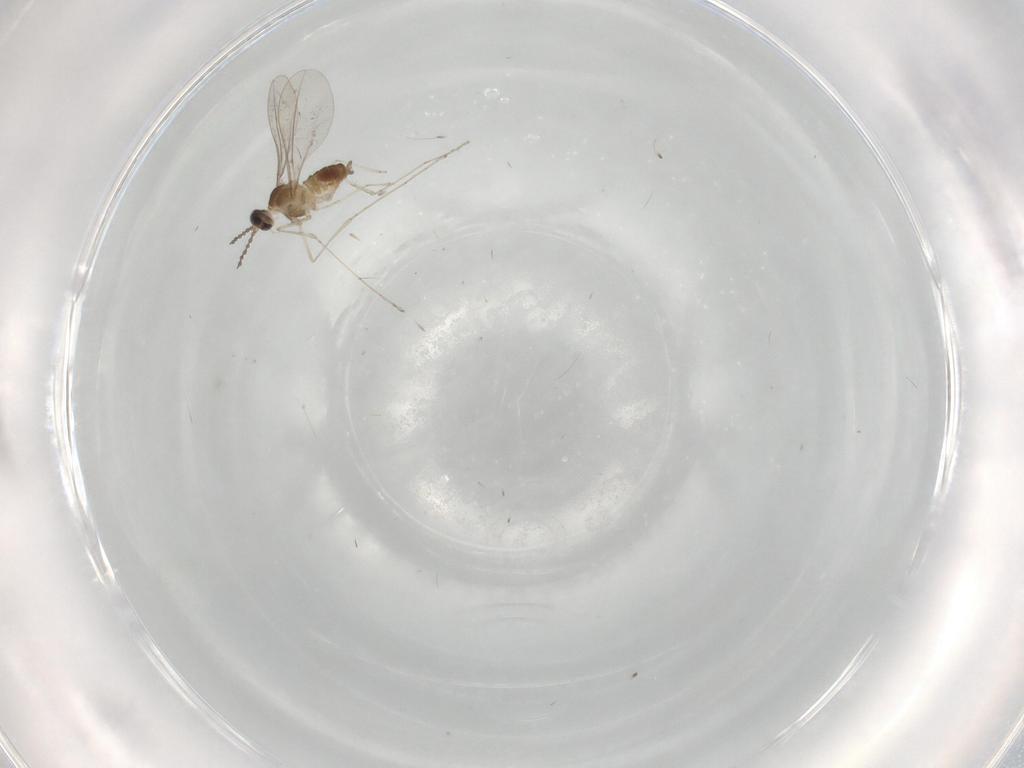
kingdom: Animalia
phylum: Arthropoda
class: Insecta
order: Diptera
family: Cecidomyiidae
